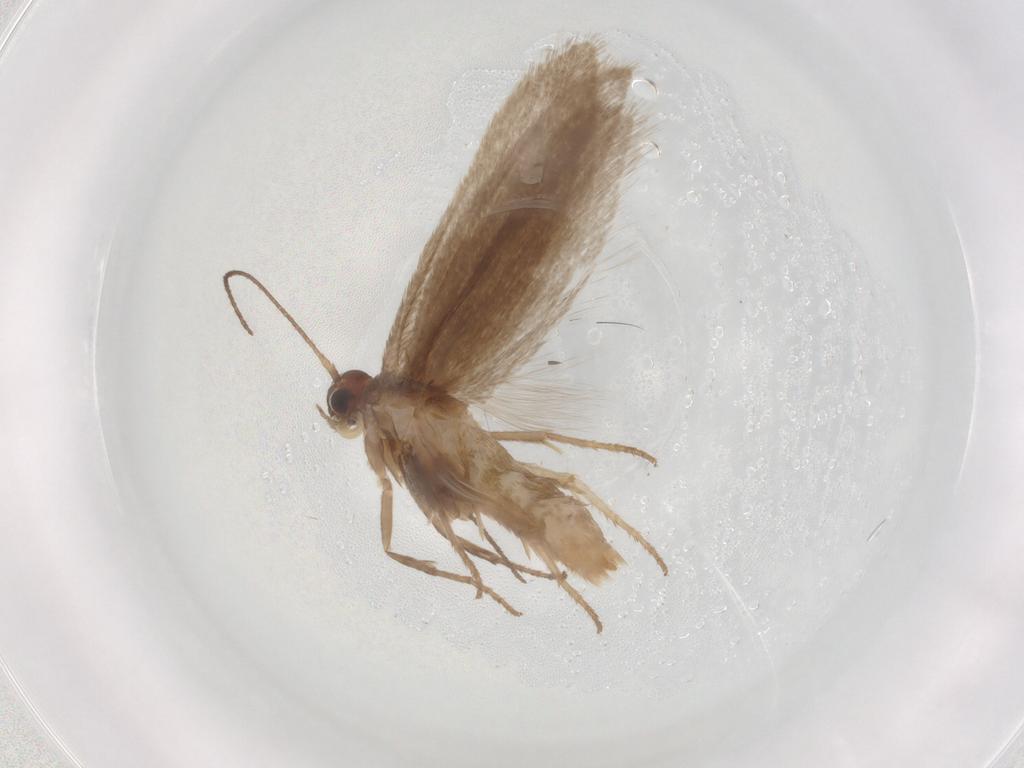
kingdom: Animalia
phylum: Arthropoda
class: Insecta
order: Lepidoptera
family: Limacodidae
